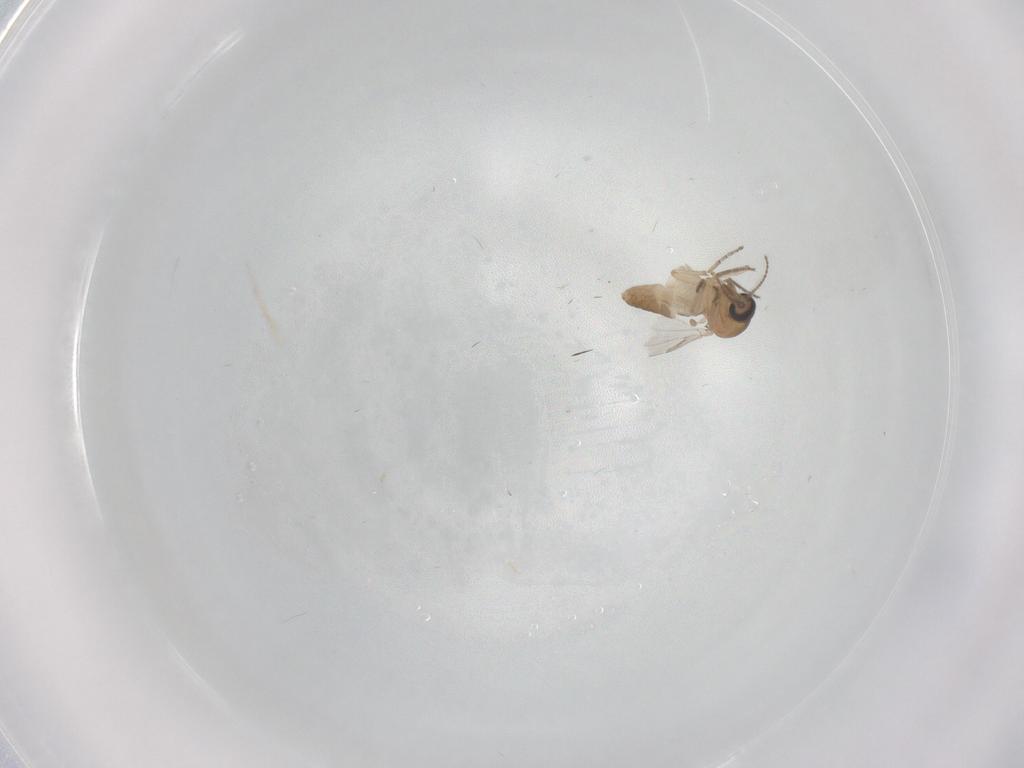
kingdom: Animalia
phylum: Arthropoda
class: Insecta
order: Diptera
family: Ceratopogonidae
